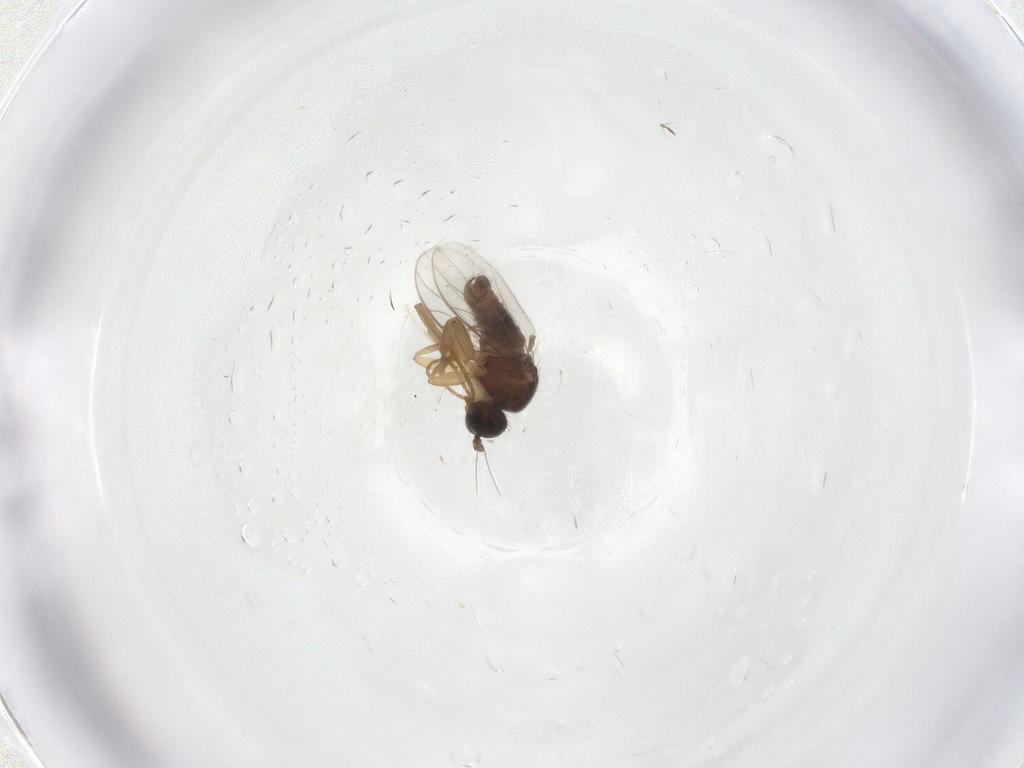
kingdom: Animalia
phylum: Arthropoda
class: Insecta
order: Diptera
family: Hybotidae
